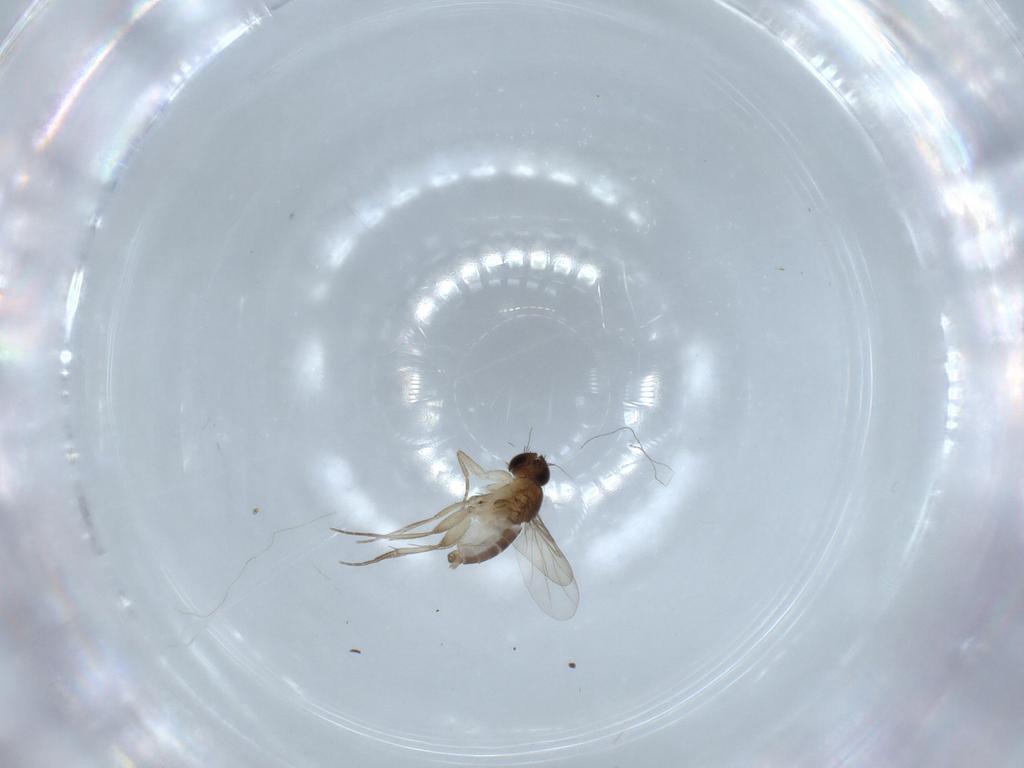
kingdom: Animalia
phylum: Arthropoda
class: Insecta
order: Diptera
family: Phoridae
